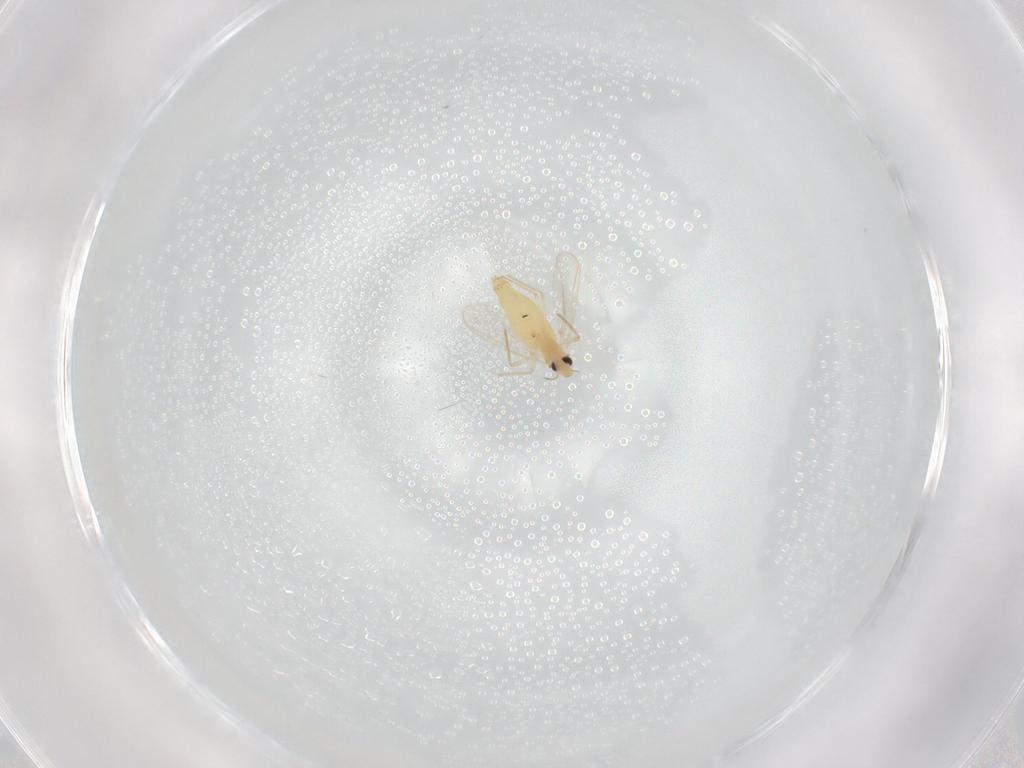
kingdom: Animalia
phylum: Arthropoda
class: Insecta
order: Diptera
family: Chironomidae
